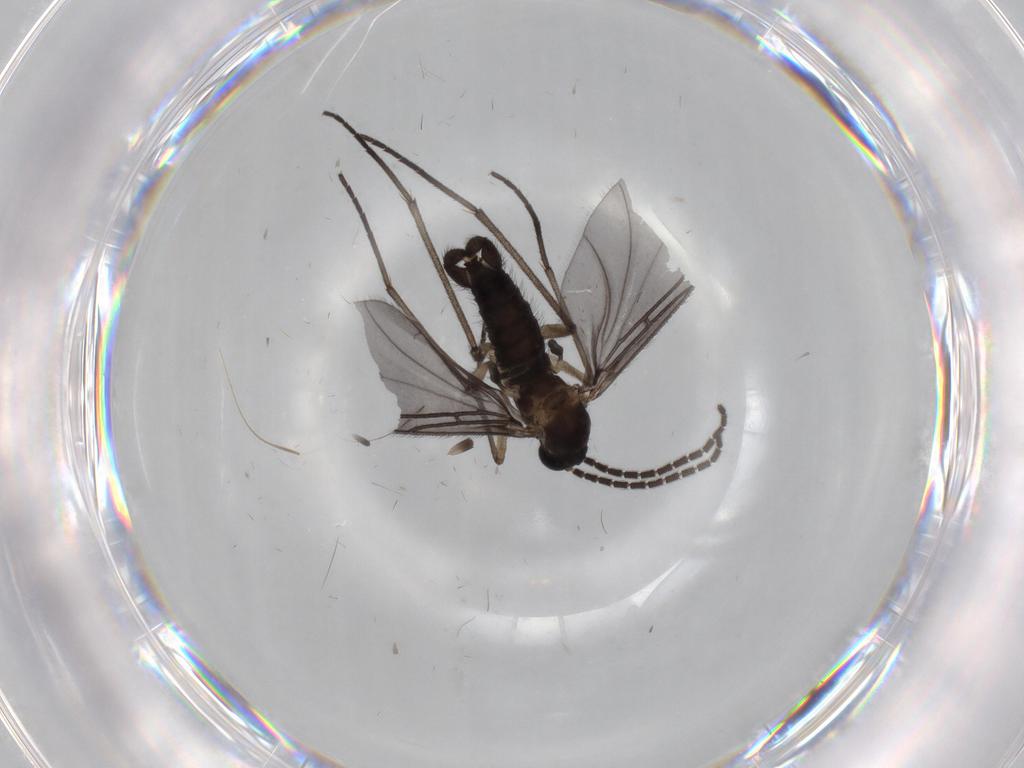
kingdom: Animalia
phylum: Arthropoda
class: Insecta
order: Diptera
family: Sciaridae
